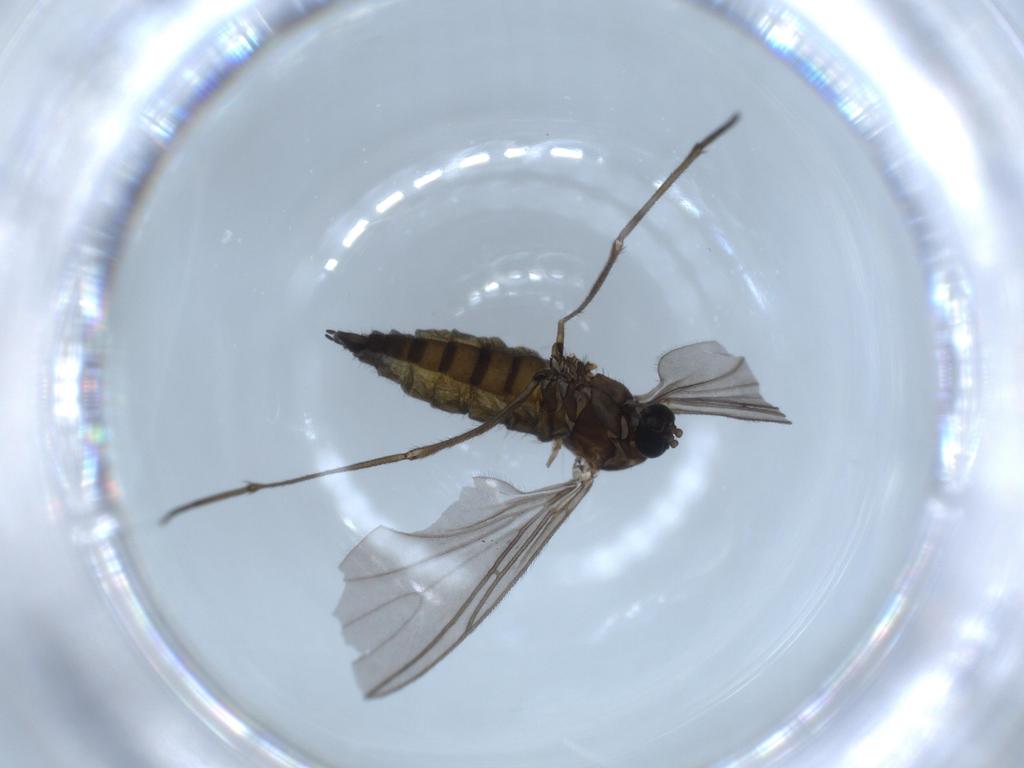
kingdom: Animalia
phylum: Arthropoda
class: Insecta
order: Diptera
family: Sciaridae
